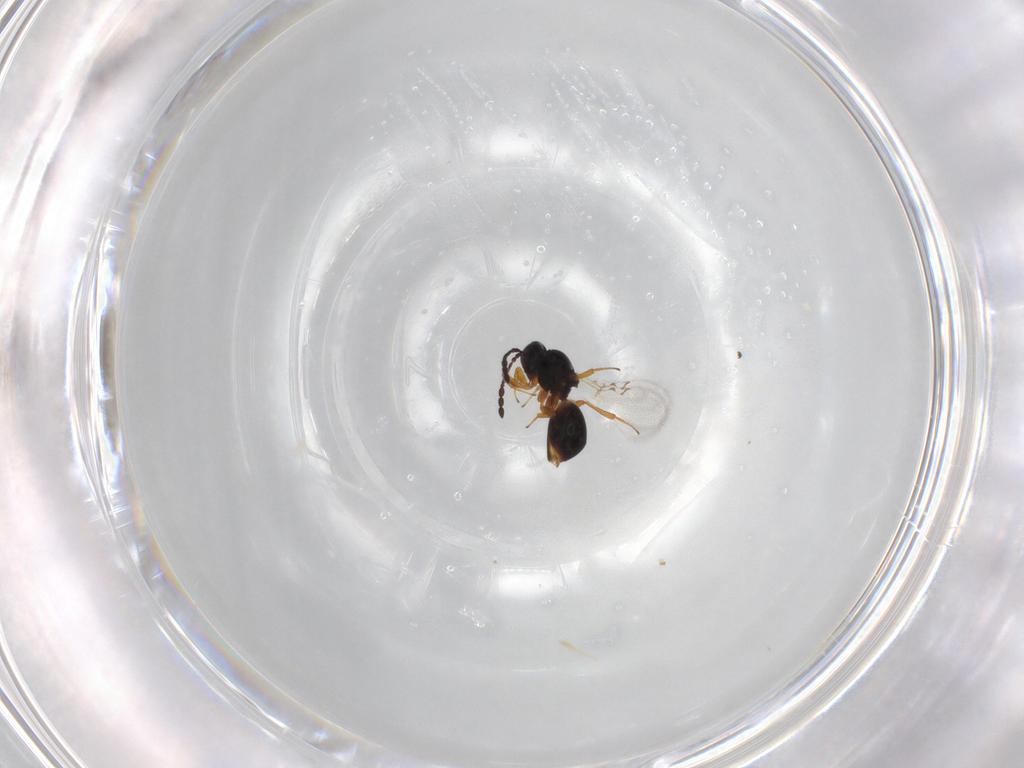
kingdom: Animalia
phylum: Arthropoda
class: Insecta
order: Hymenoptera
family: Figitidae
